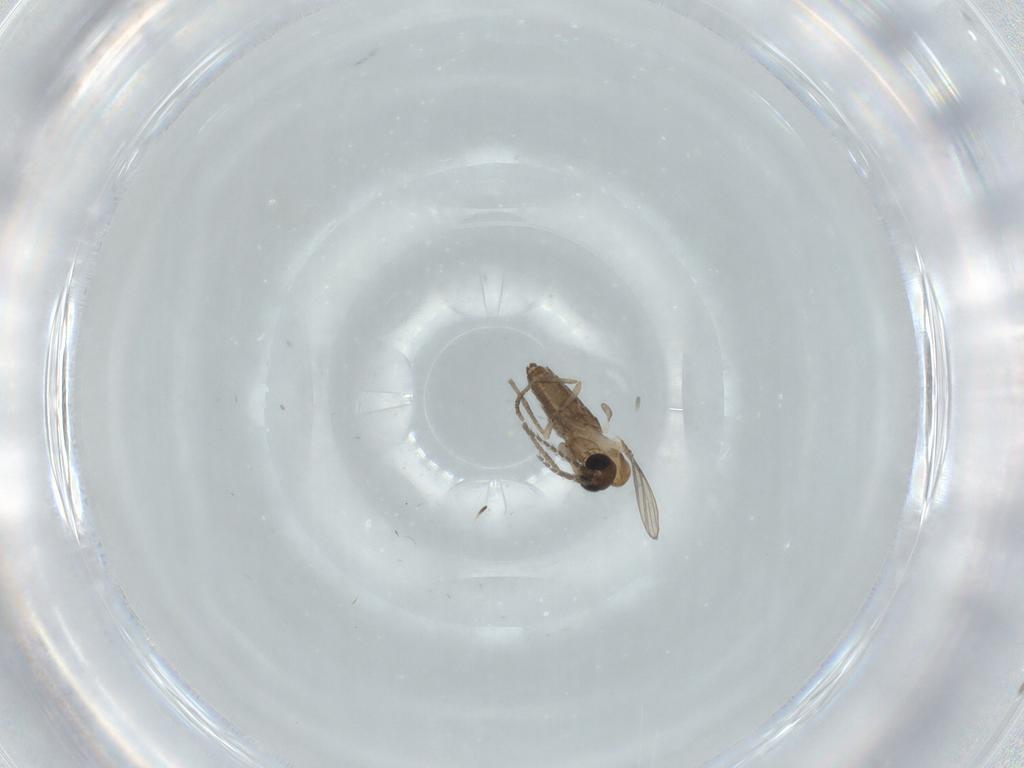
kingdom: Animalia
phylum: Arthropoda
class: Insecta
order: Diptera
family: Psychodidae
